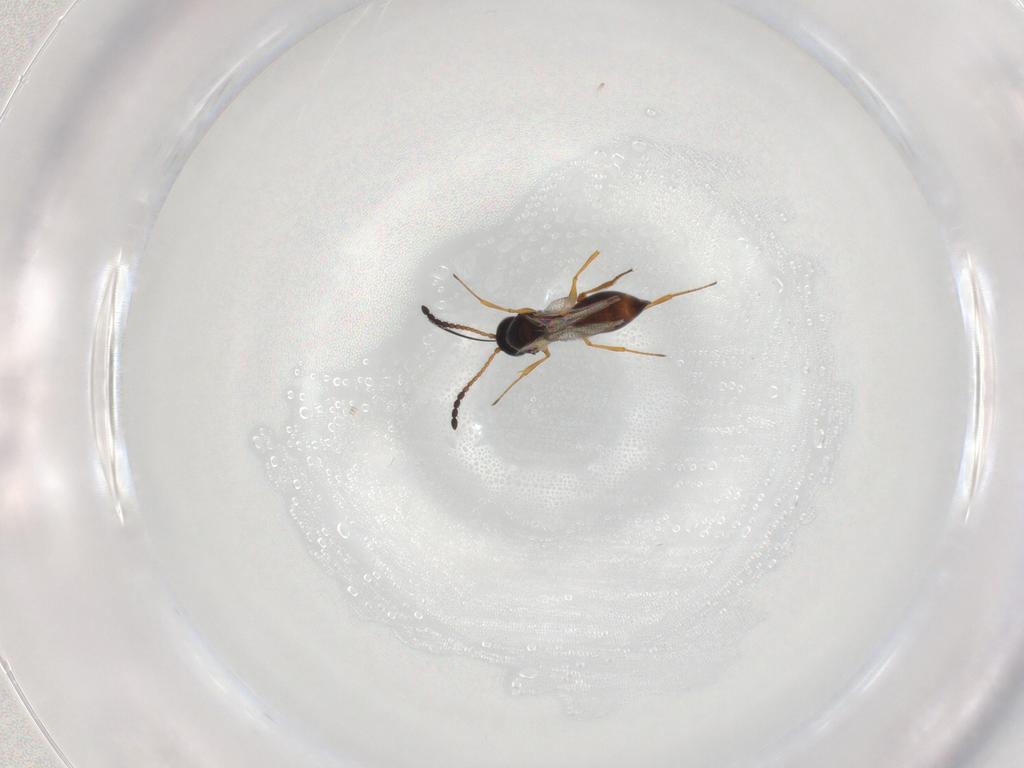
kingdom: Animalia
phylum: Arthropoda
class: Insecta
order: Hymenoptera
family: Figitidae
